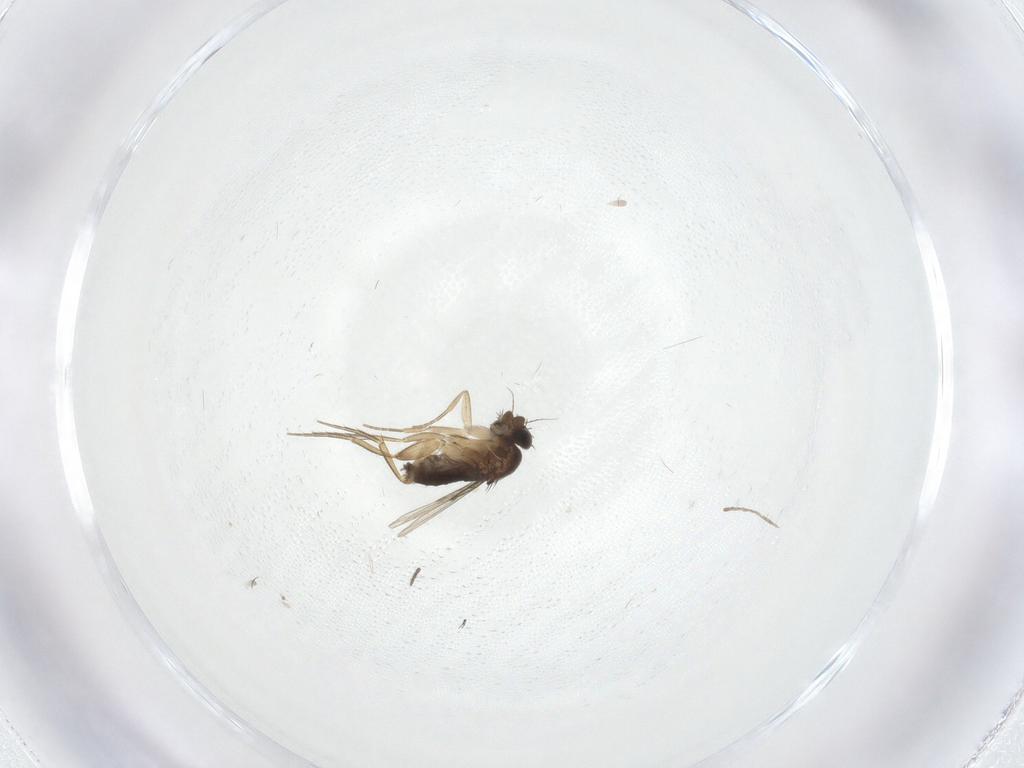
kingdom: Animalia
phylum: Arthropoda
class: Insecta
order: Diptera
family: Phoridae
